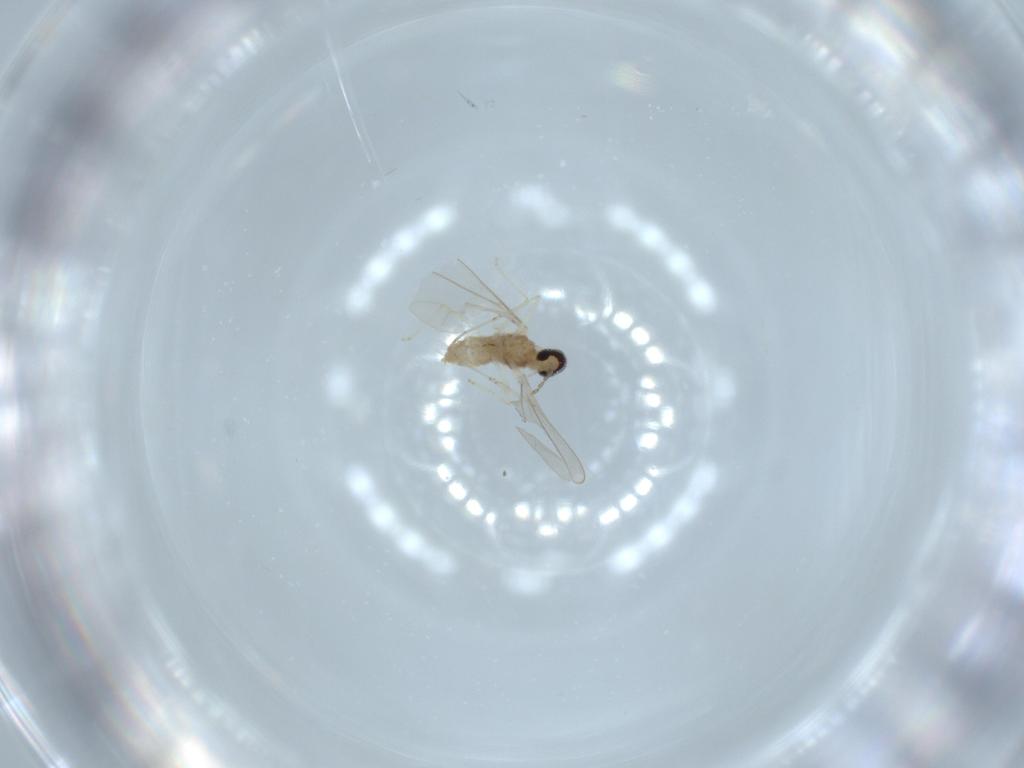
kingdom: Animalia
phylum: Arthropoda
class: Insecta
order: Diptera
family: Cecidomyiidae
